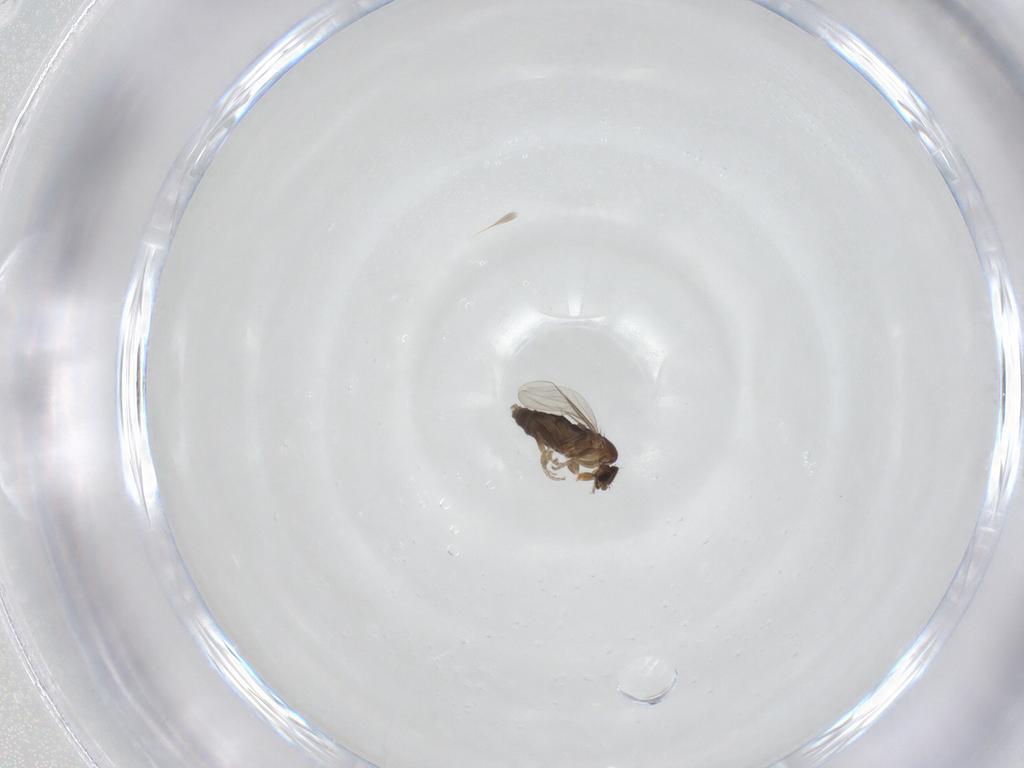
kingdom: Animalia
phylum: Arthropoda
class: Insecta
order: Diptera
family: Phoridae
